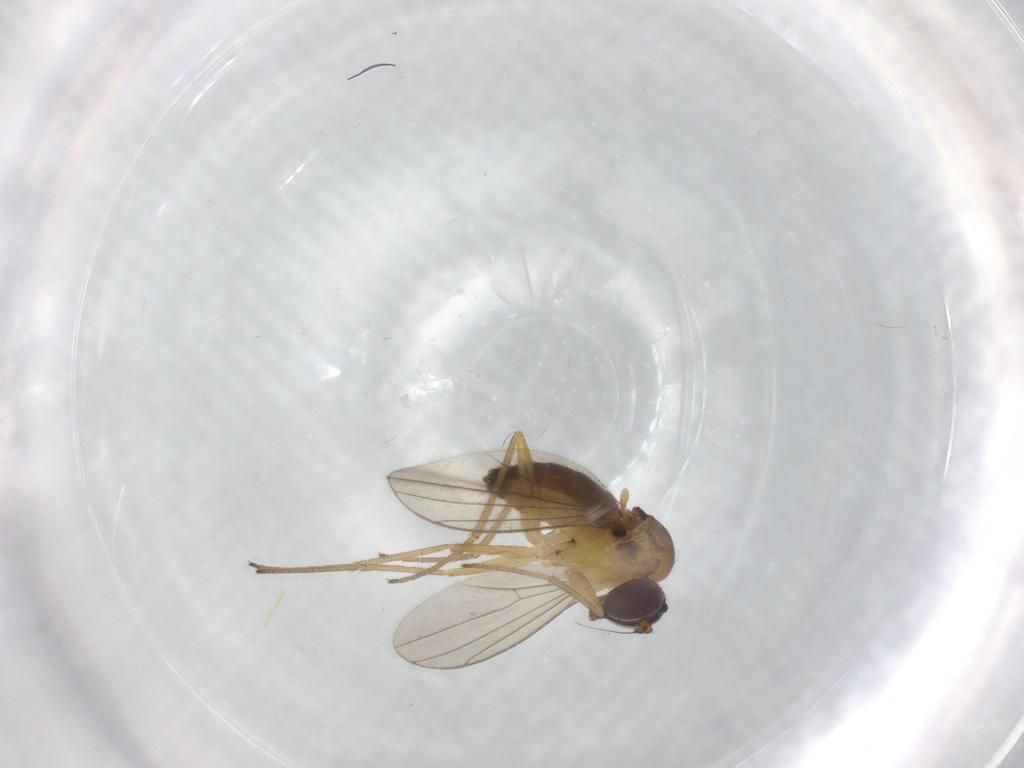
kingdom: Animalia
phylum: Arthropoda
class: Insecta
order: Diptera
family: Dolichopodidae
